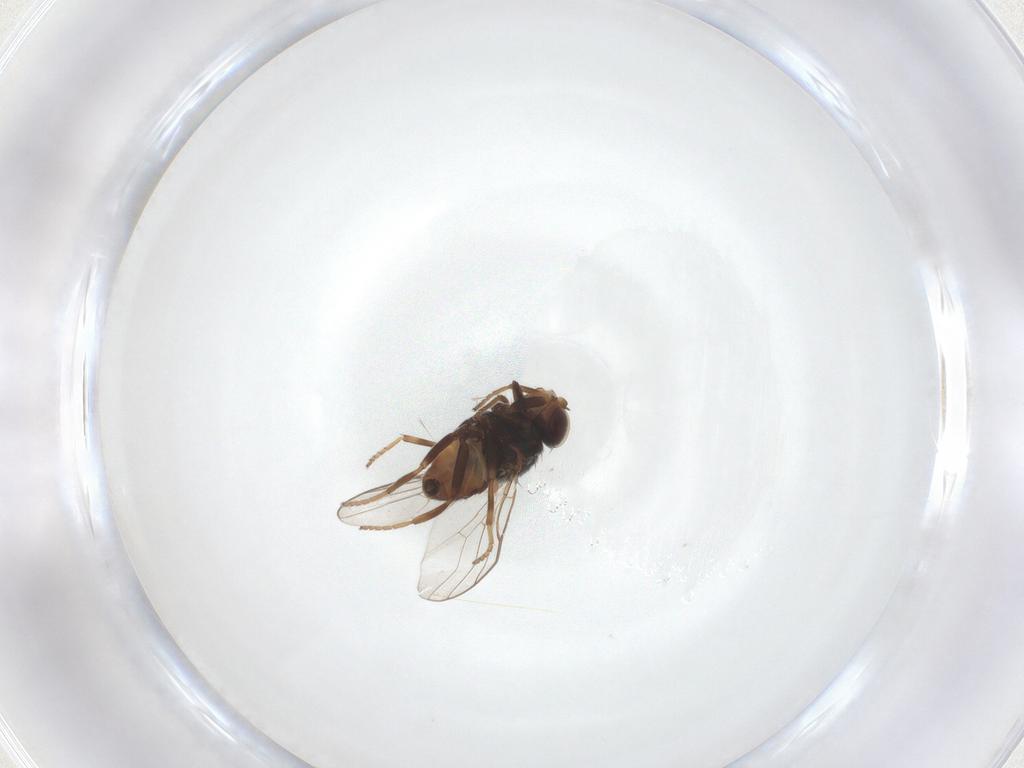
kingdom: Animalia
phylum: Arthropoda
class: Insecta
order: Diptera
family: Chloropidae
